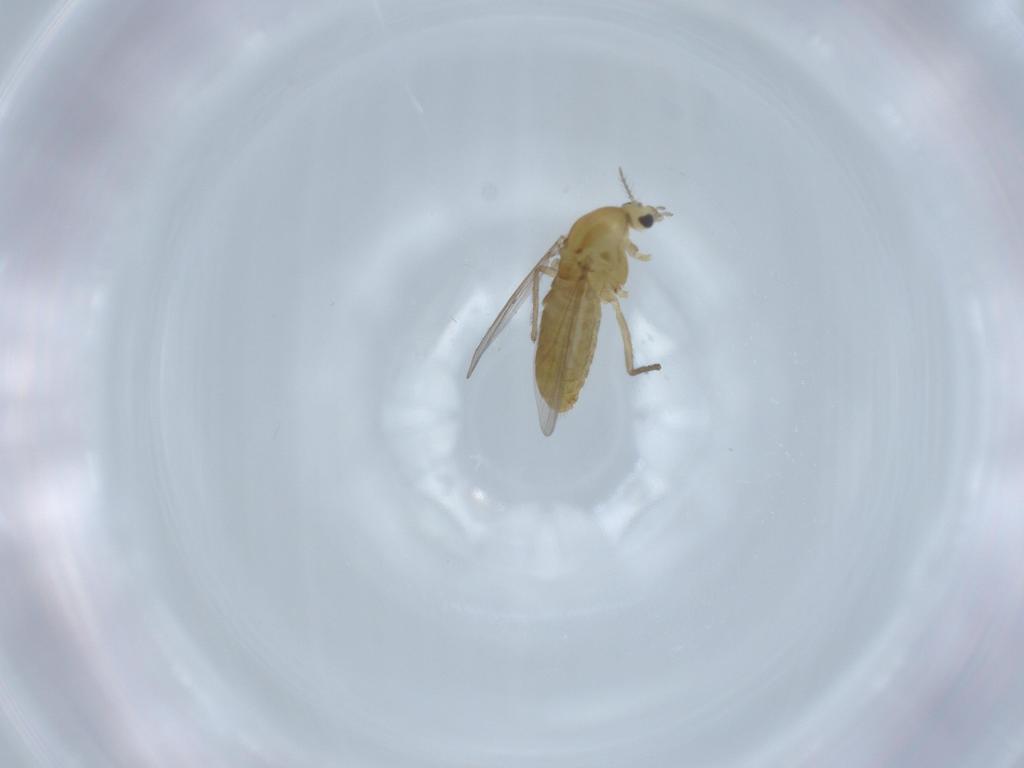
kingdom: Animalia
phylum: Arthropoda
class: Insecta
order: Diptera
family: Chironomidae
